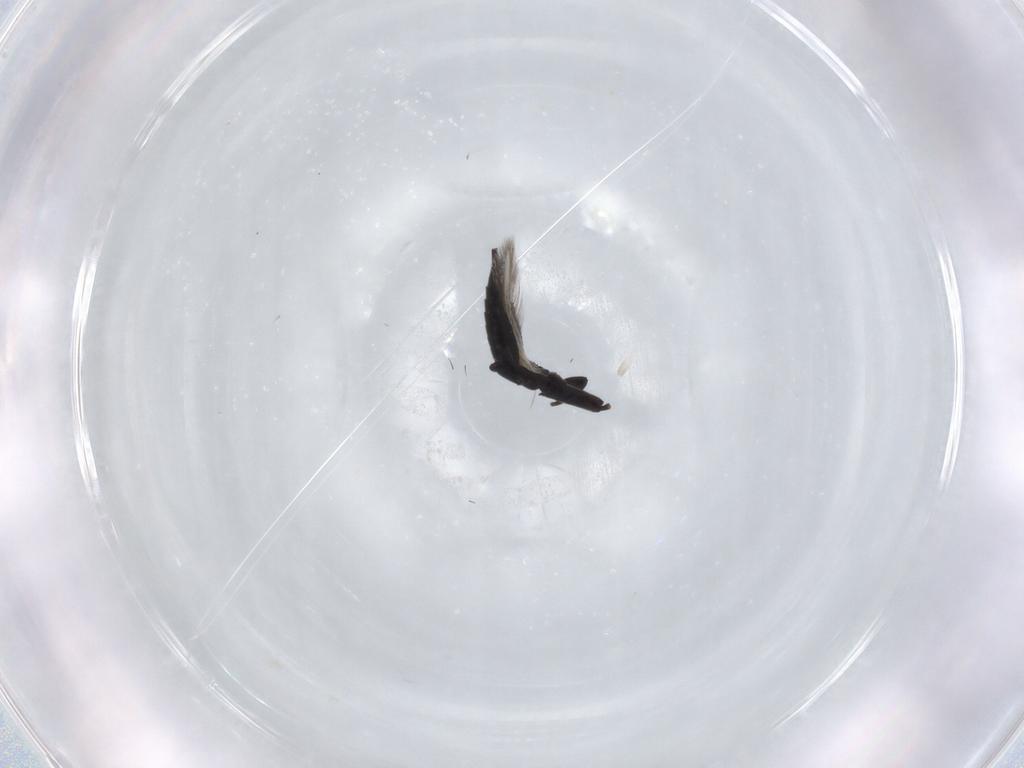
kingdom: Animalia
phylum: Arthropoda
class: Insecta
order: Thysanoptera
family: Phlaeothripidae
